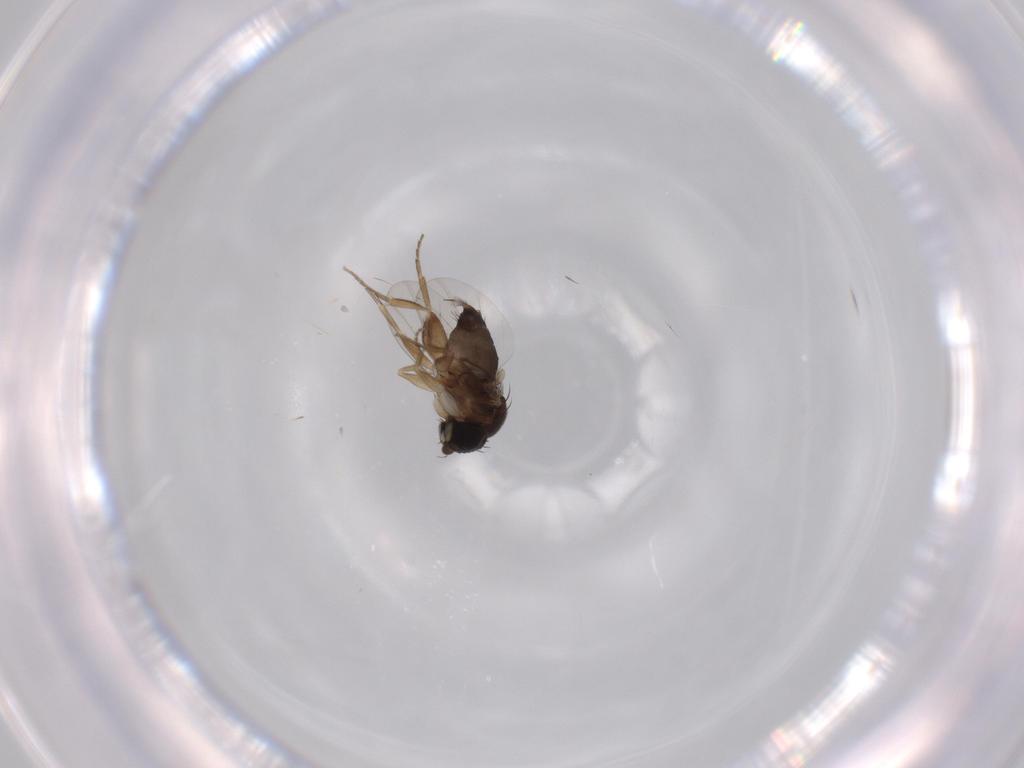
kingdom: Animalia
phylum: Arthropoda
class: Insecta
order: Diptera
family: Phoridae
